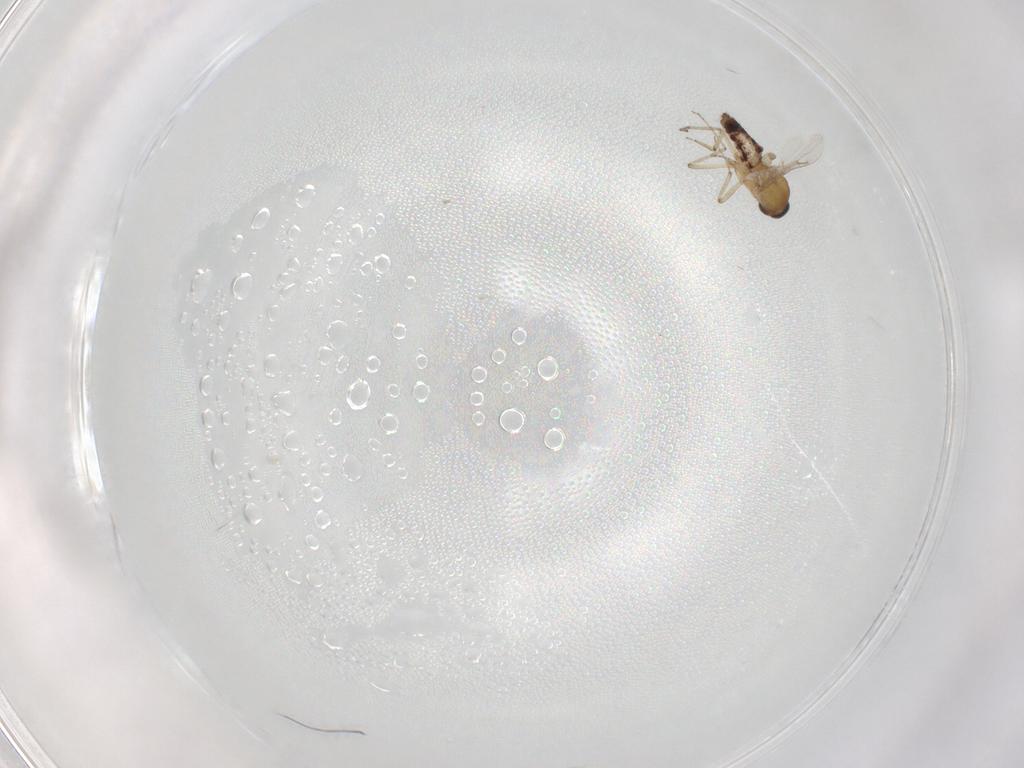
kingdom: Animalia
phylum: Arthropoda
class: Insecta
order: Diptera
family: Ceratopogonidae
